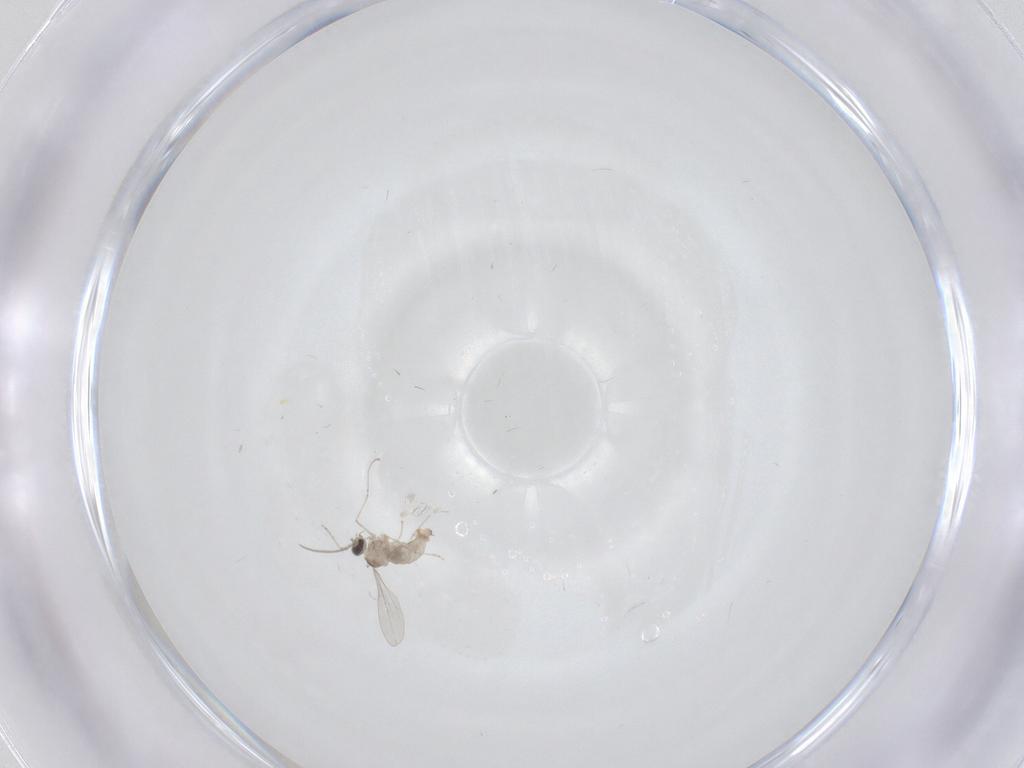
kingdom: Animalia
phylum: Arthropoda
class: Insecta
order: Diptera
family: Cecidomyiidae
